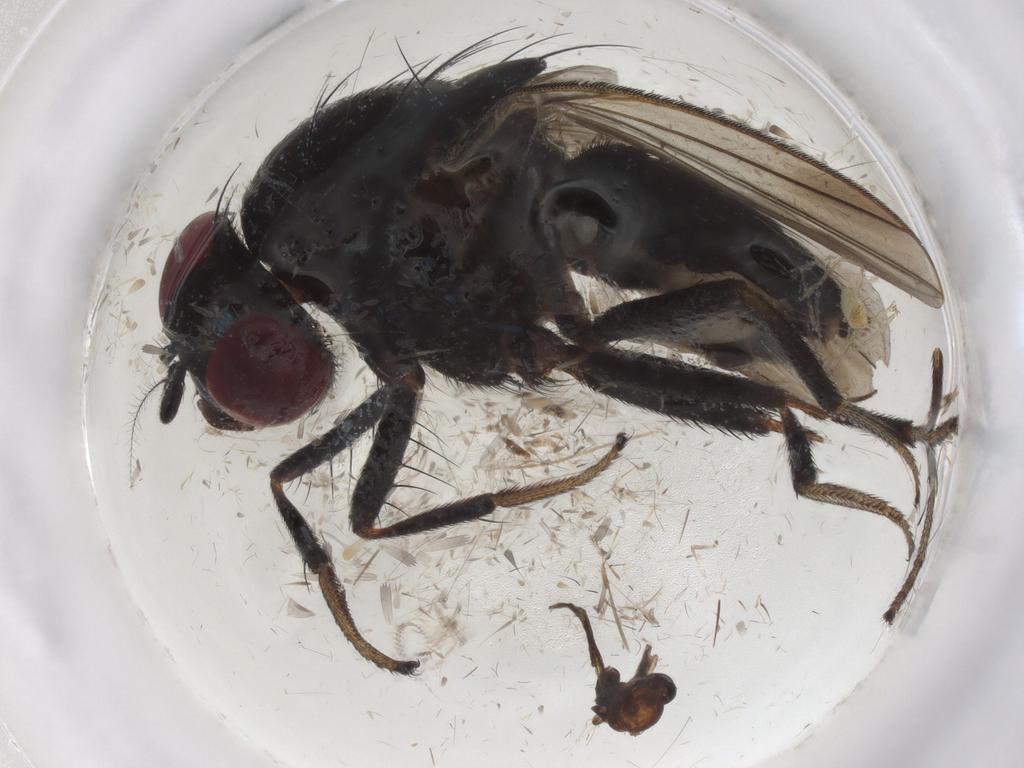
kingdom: Animalia
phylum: Arthropoda
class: Insecta
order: Diptera
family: Lauxaniidae
